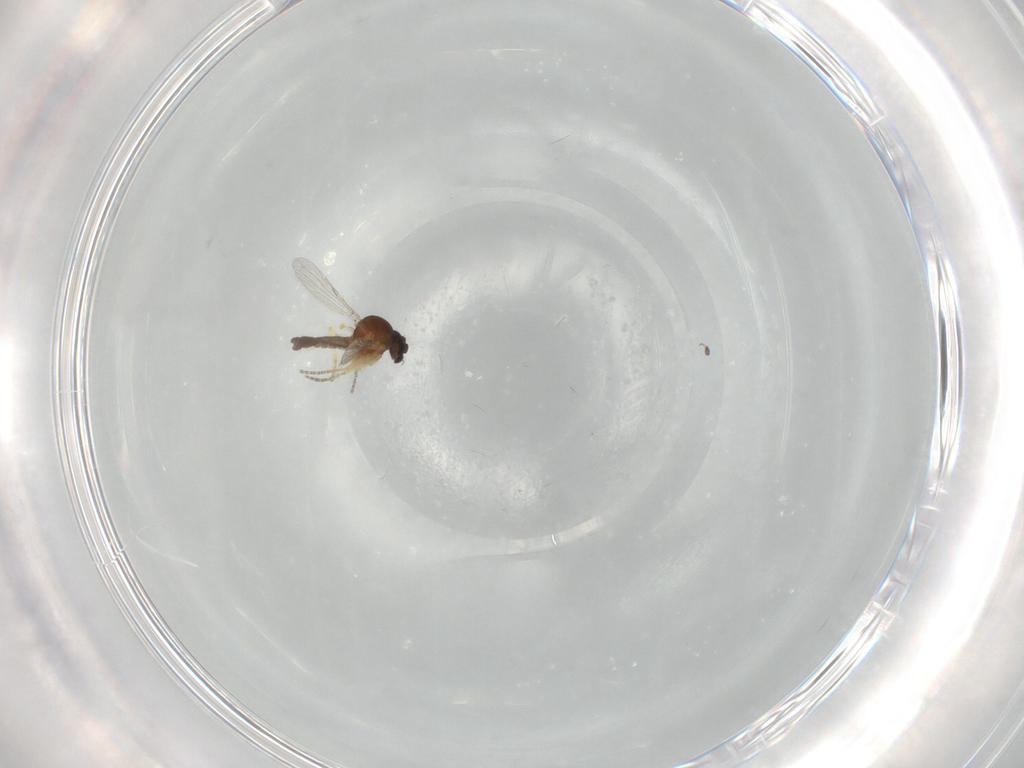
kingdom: Animalia
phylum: Arthropoda
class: Insecta
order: Diptera
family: Ceratopogonidae
